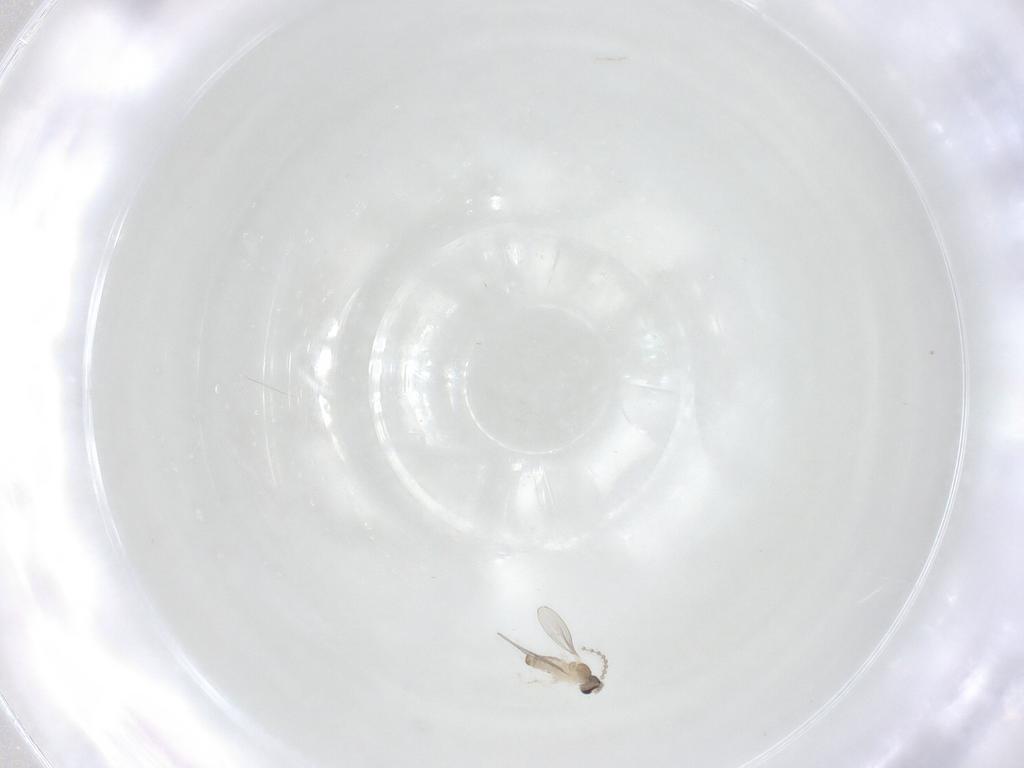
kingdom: Animalia
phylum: Arthropoda
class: Insecta
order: Diptera
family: Cecidomyiidae
